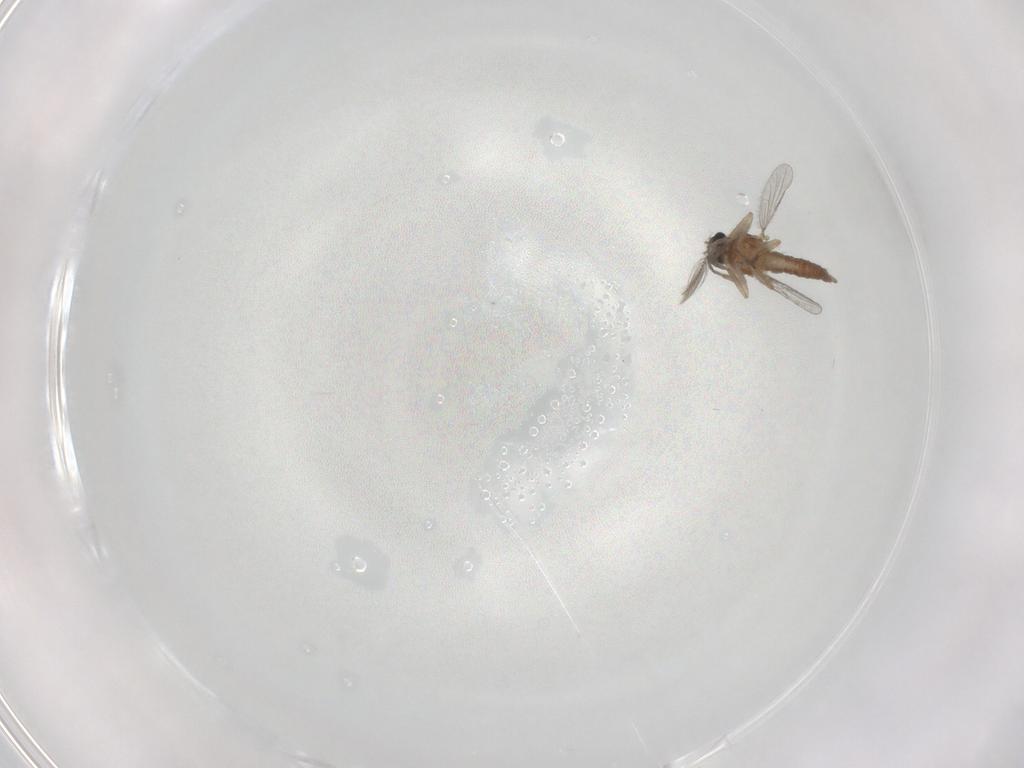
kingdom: Animalia
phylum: Arthropoda
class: Insecta
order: Diptera
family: Chironomidae
